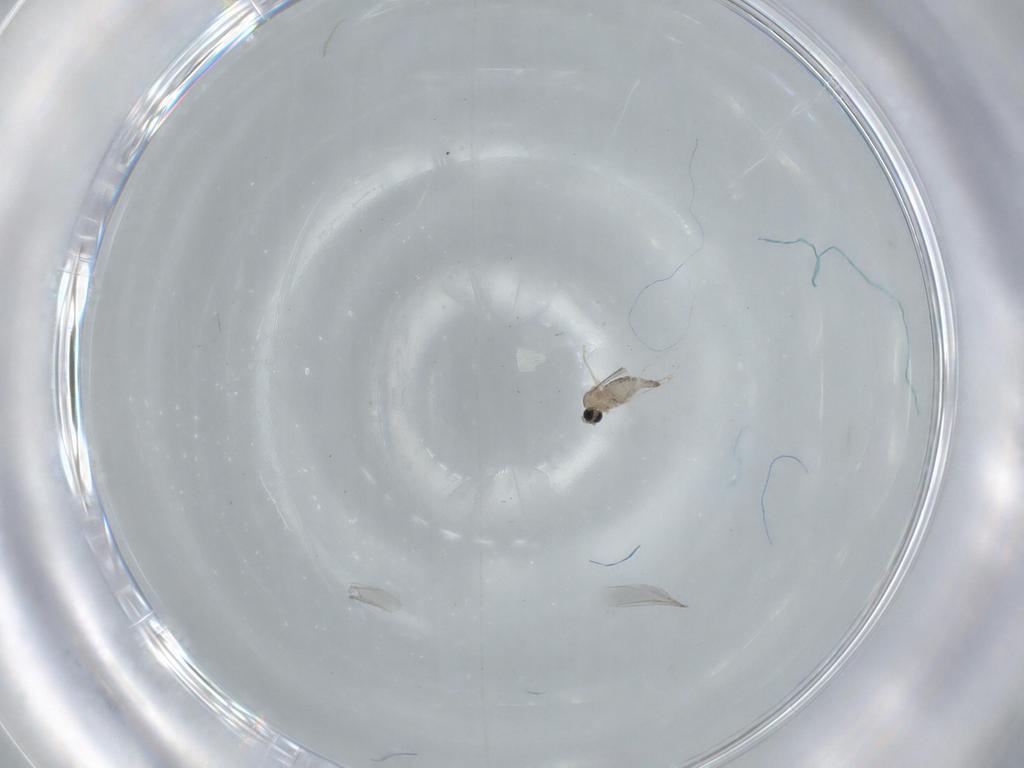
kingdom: Animalia
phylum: Arthropoda
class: Insecta
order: Diptera
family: Cecidomyiidae
